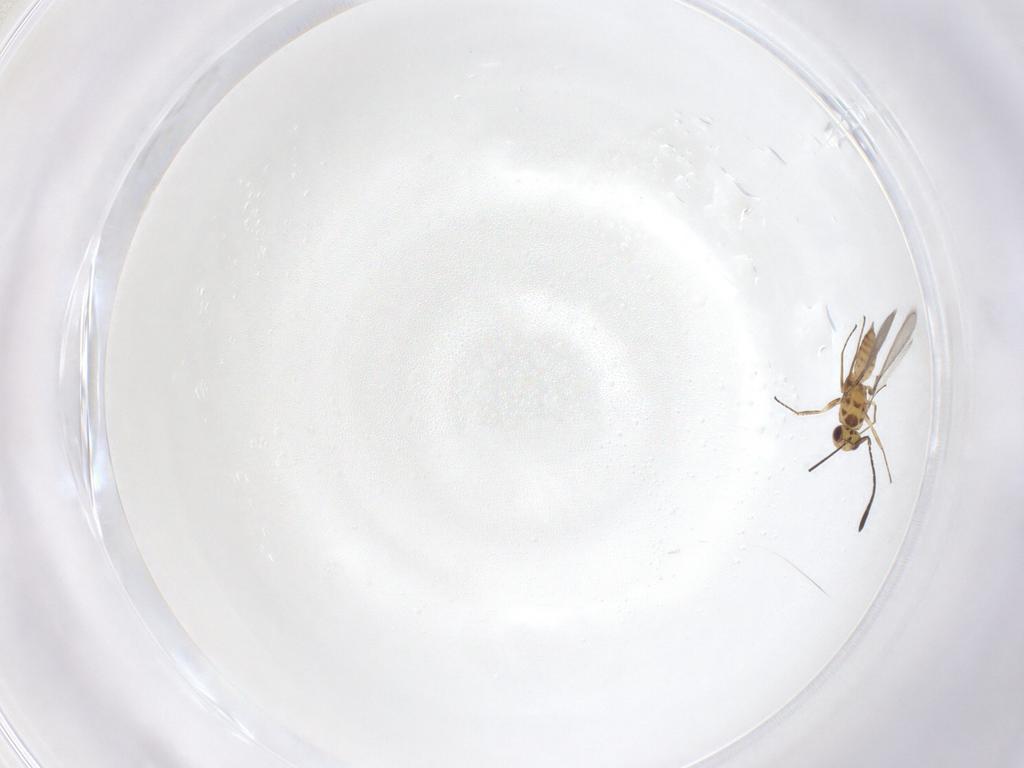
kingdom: Animalia
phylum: Arthropoda
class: Insecta
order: Hymenoptera
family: Mymaridae
